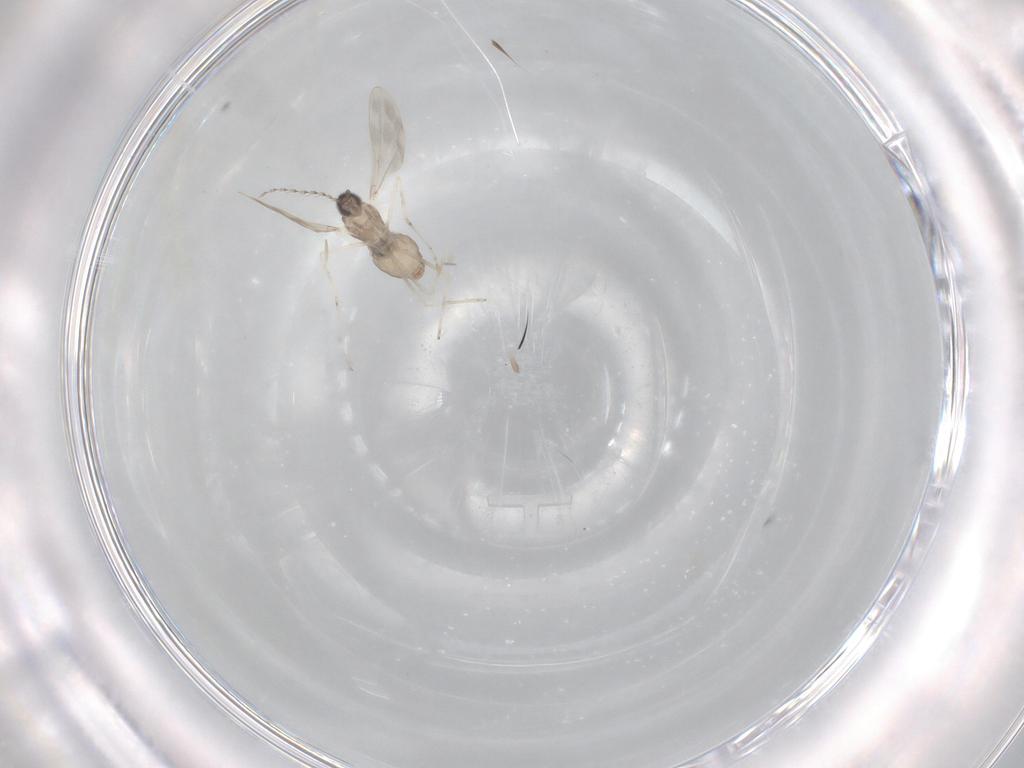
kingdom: Animalia
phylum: Arthropoda
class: Insecta
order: Diptera
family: Cecidomyiidae
